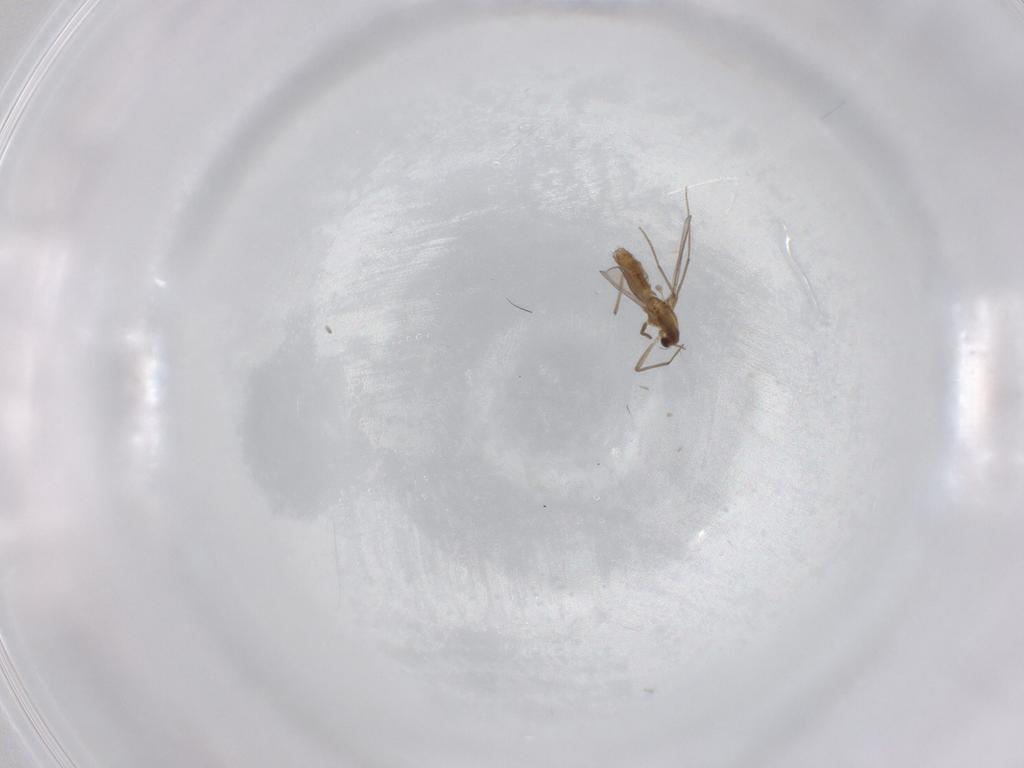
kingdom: Animalia
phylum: Arthropoda
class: Insecta
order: Diptera
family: Chironomidae
